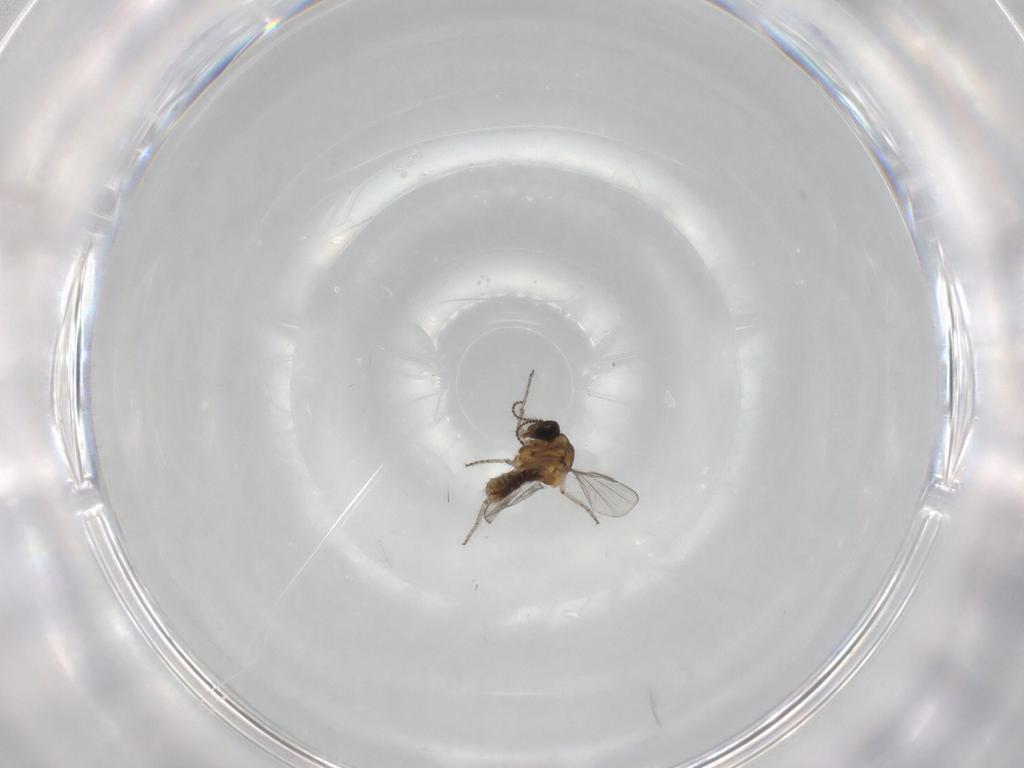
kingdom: Animalia
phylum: Arthropoda
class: Insecta
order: Diptera
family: Ceratopogonidae
